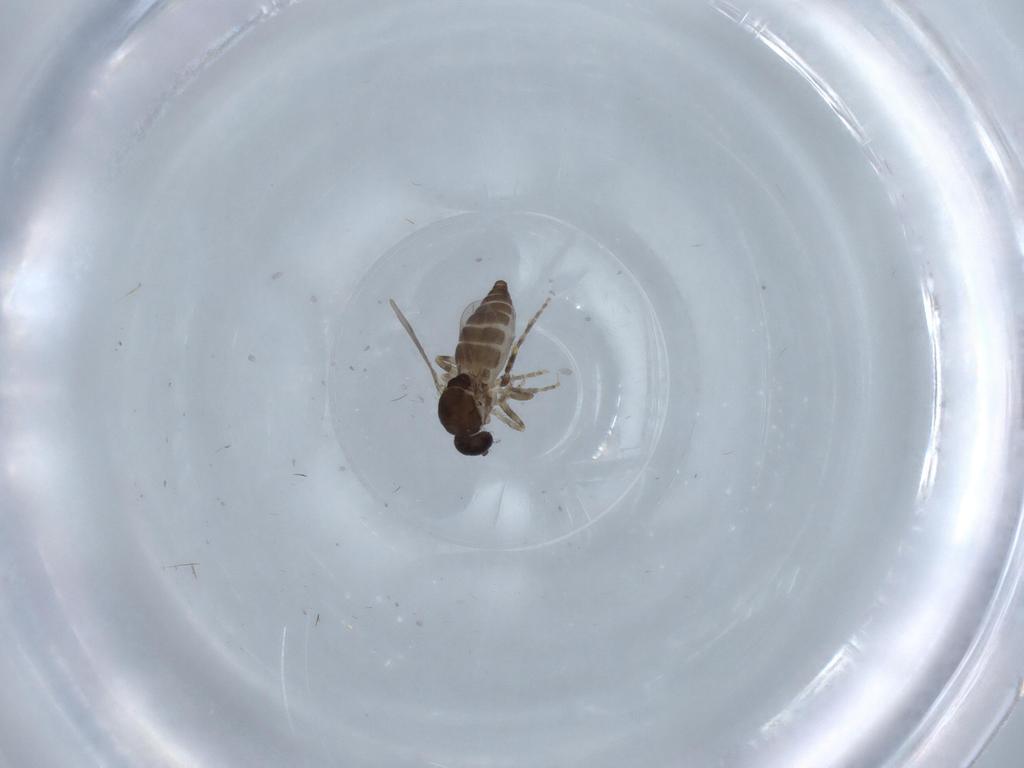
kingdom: Animalia
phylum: Arthropoda
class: Insecta
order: Diptera
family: Ceratopogonidae
